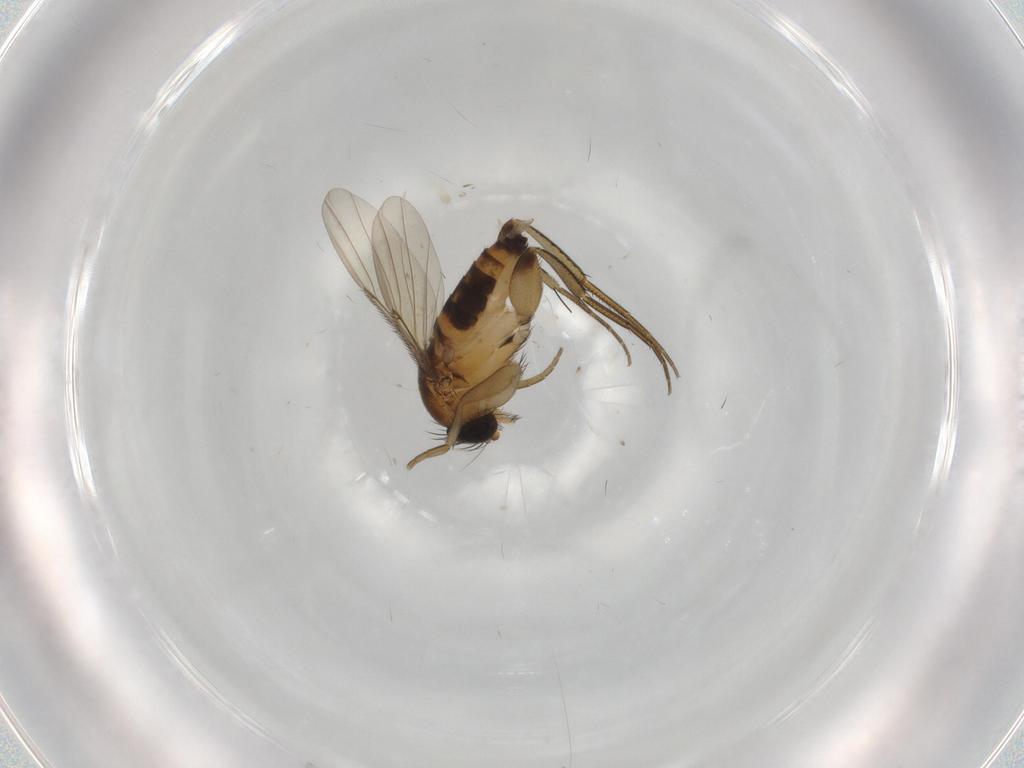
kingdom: Animalia
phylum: Arthropoda
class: Insecta
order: Diptera
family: Phoridae
